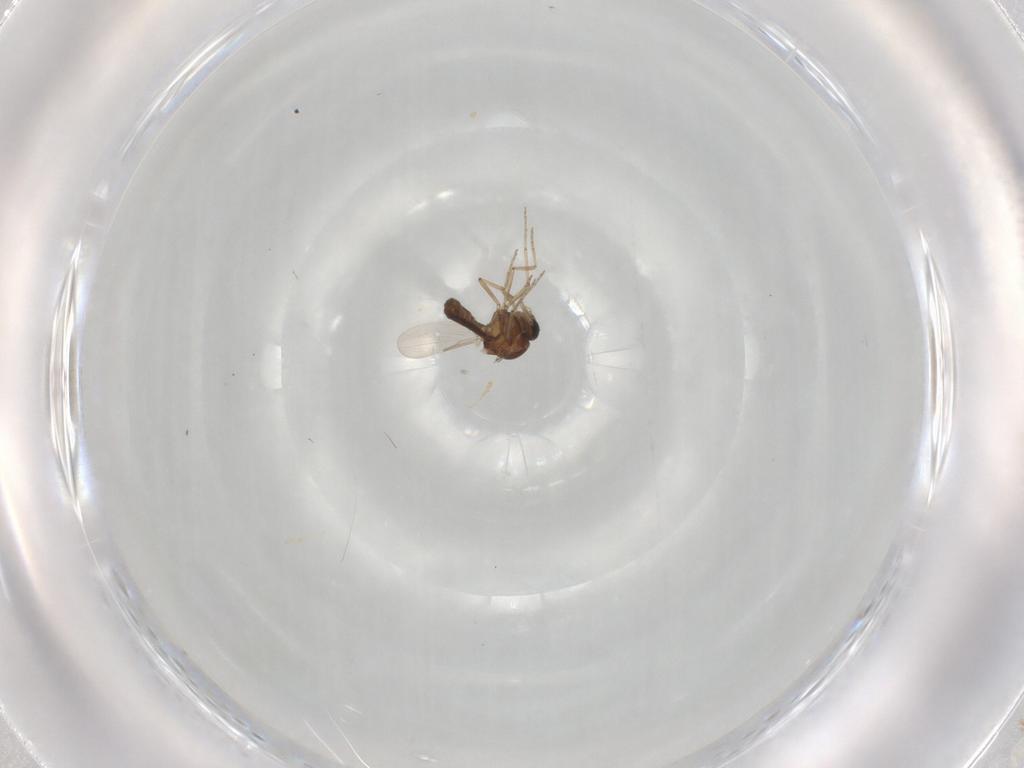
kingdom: Animalia
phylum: Arthropoda
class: Insecta
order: Diptera
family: Ceratopogonidae
